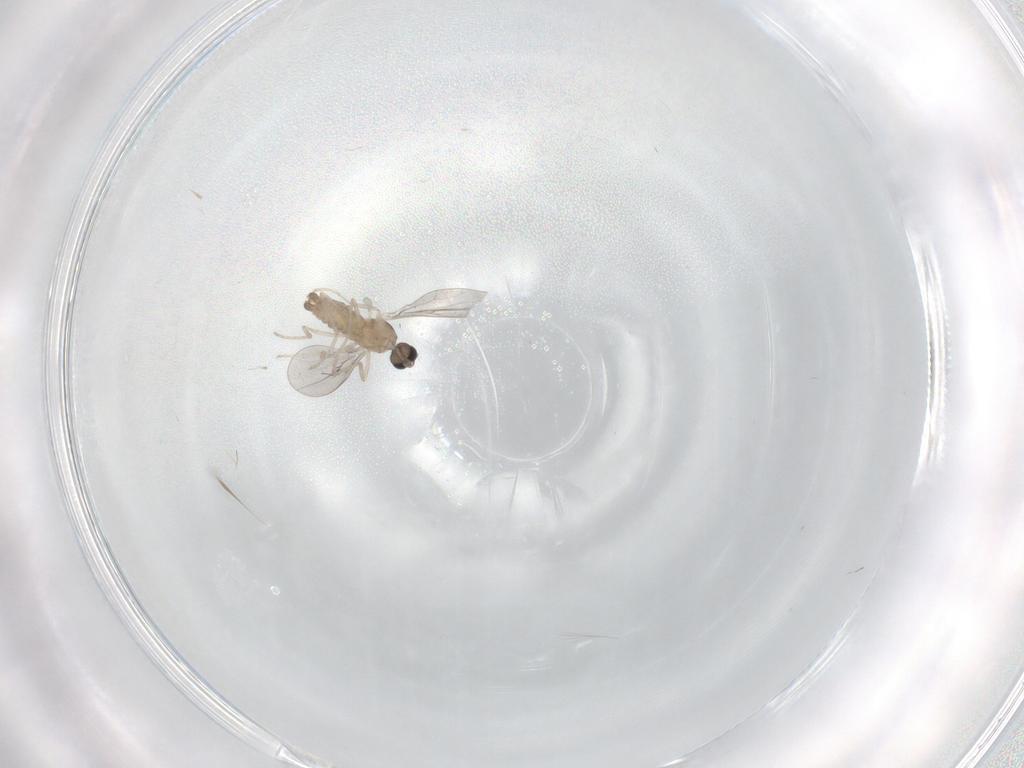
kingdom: Animalia
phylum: Arthropoda
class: Insecta
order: Diptera
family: Cecidomyiidae
